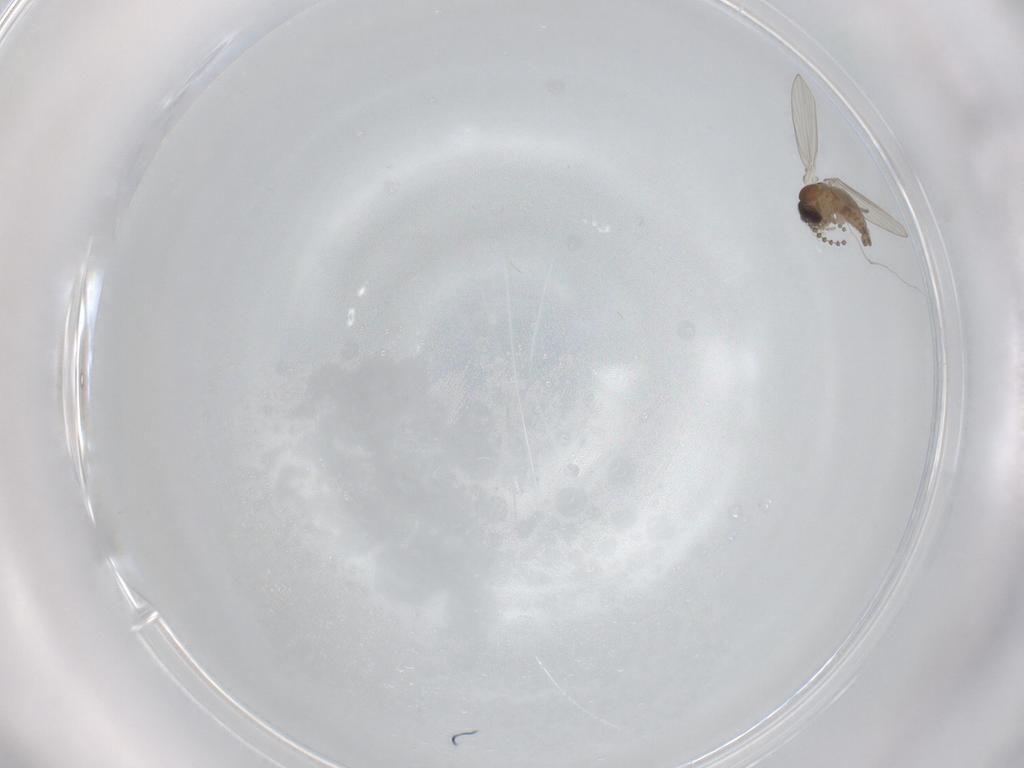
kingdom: Animalia
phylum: Arthropoda
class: Insecta
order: Diptera
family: Psychodidae
